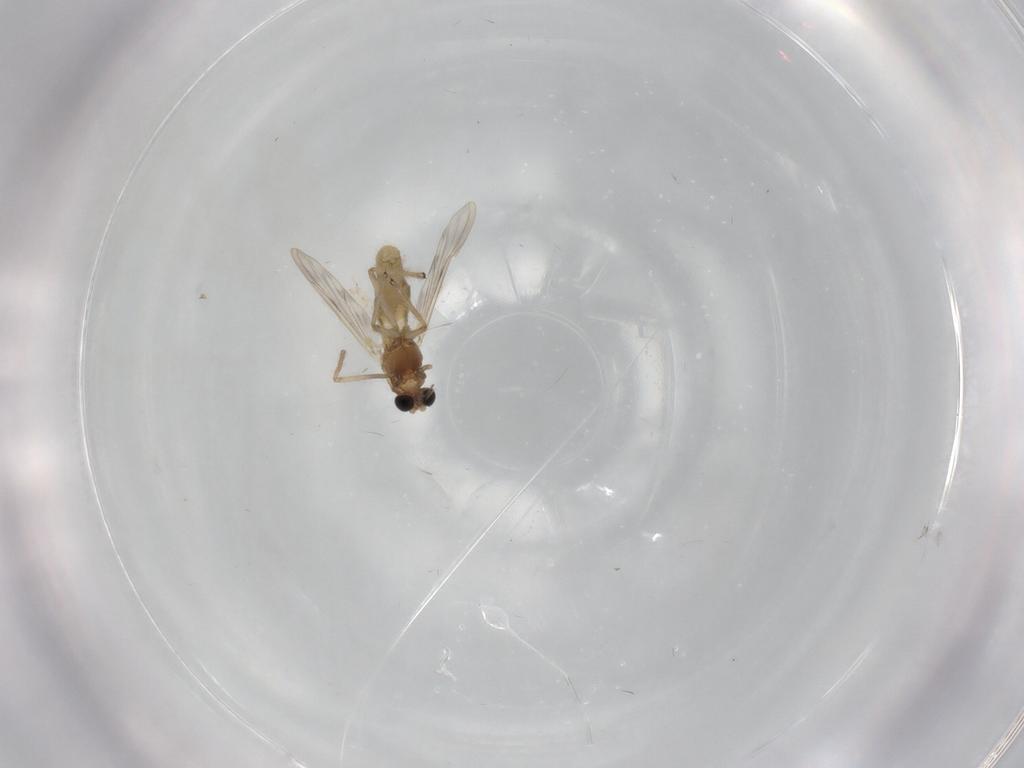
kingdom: Animalia
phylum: Arthropoda
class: Insecta
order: Diptera
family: Chironomidae
